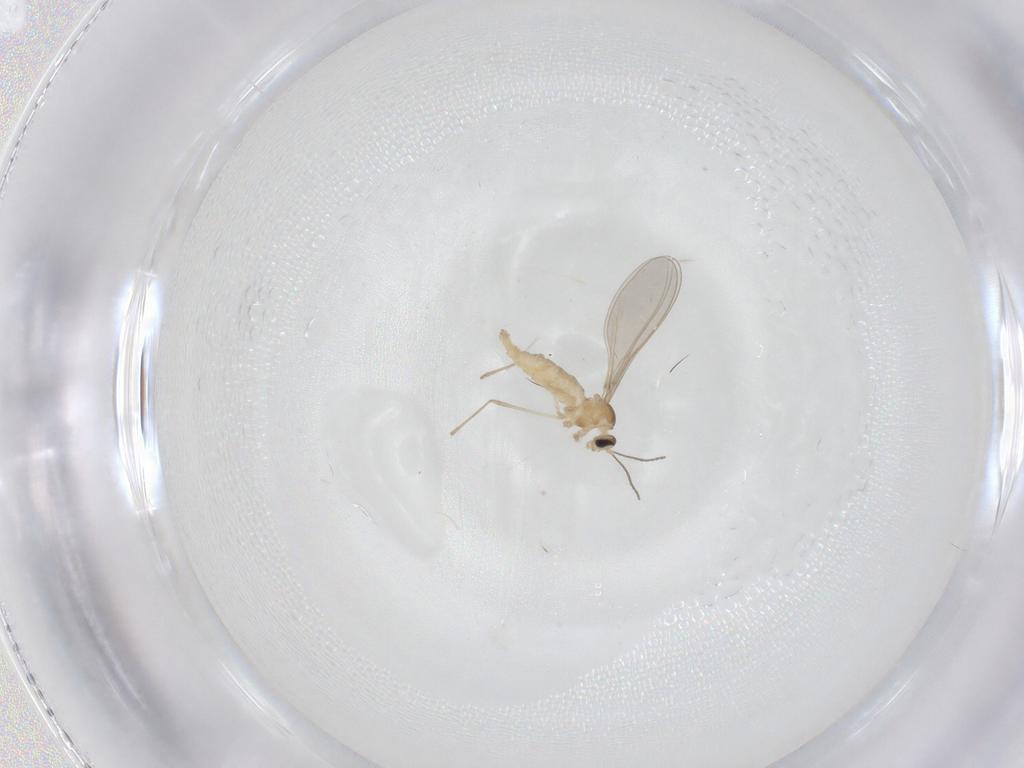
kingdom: Animalia
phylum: Arthropoda
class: Insecta
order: Diptera
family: Cecidomyiidae
